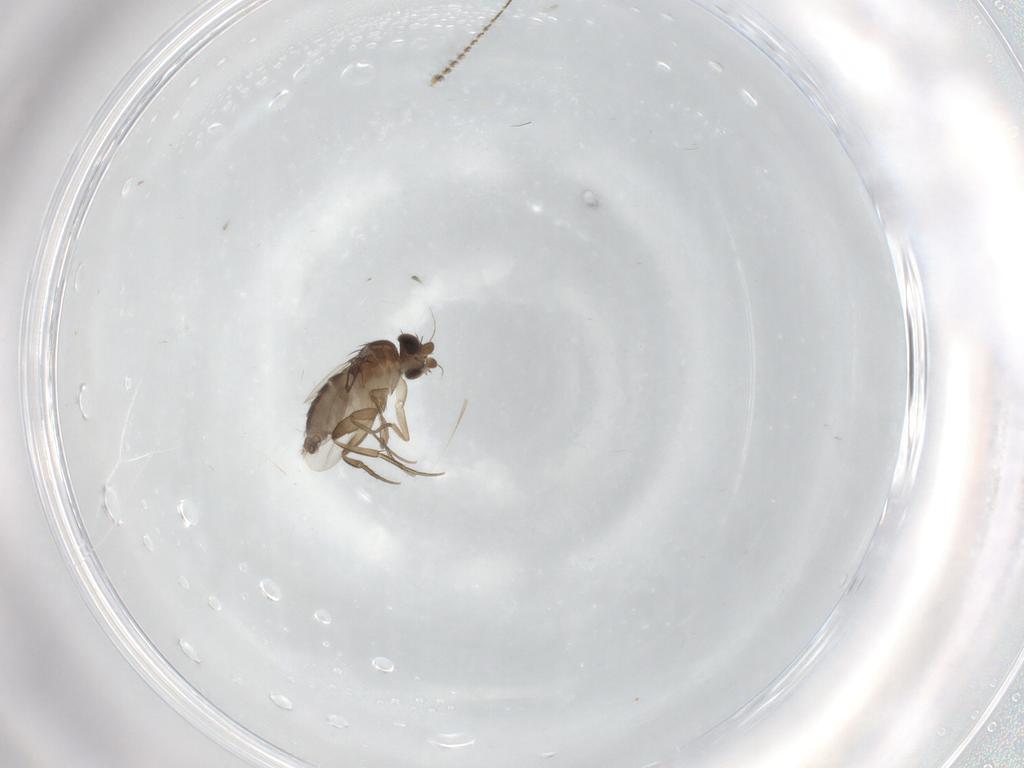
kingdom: Animalia
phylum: Arthropoda
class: Insecta
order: Diptera
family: Phoridae
